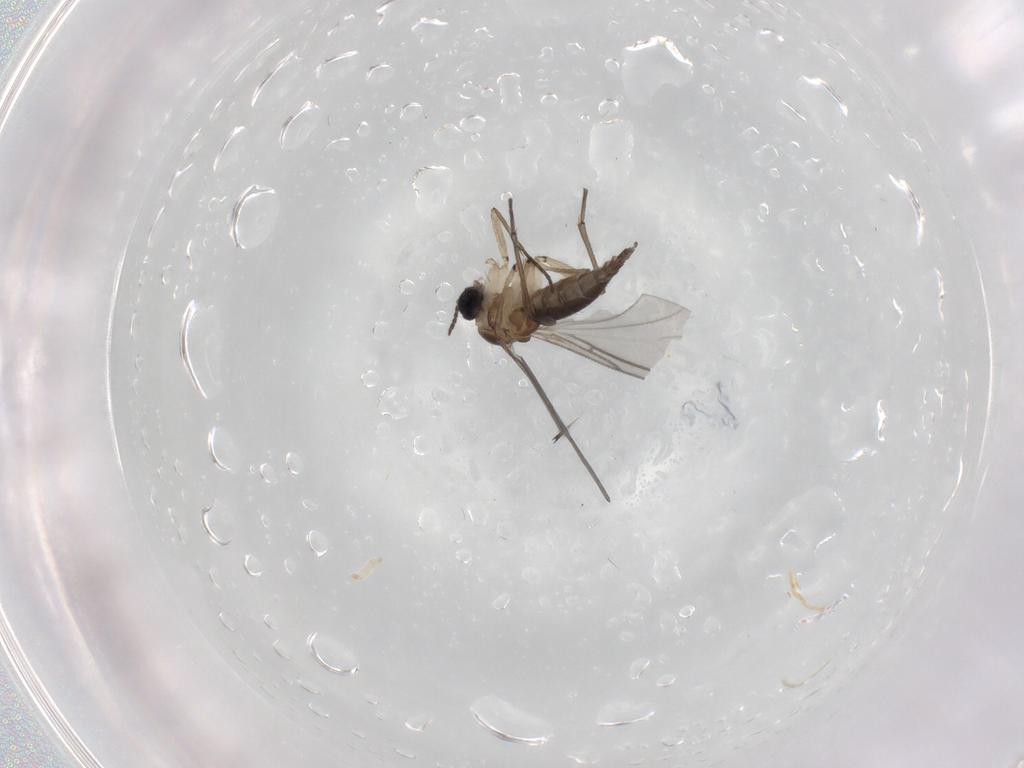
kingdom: Animalia
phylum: Arthropoda
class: Insecta
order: Diptera
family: Sciaridae
